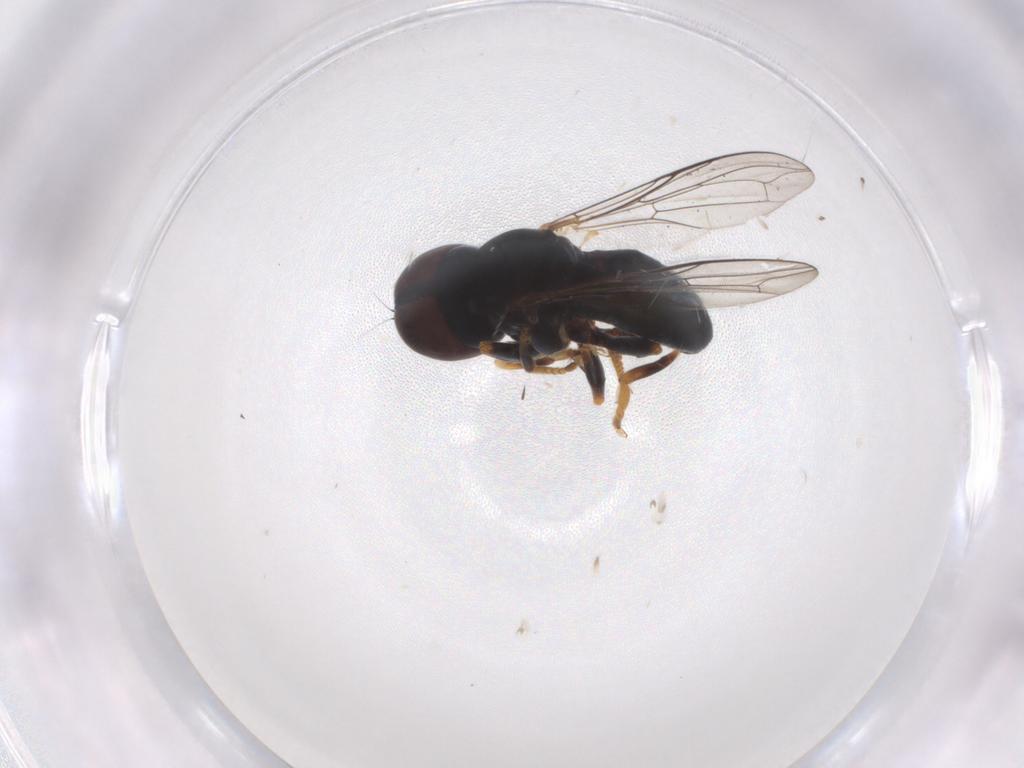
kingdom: Animalia
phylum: Arthropoda
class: Insecta
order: Diptera
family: Pipunculidae
